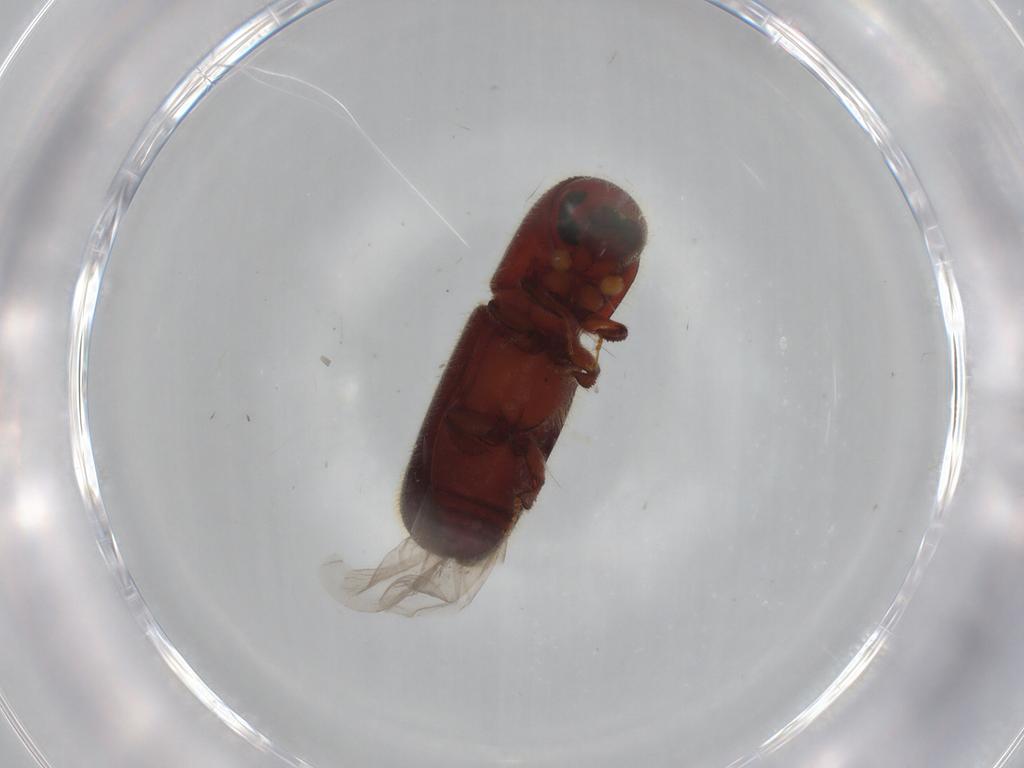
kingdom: Animalia
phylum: Arthropoda
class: Insecta
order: Coleoptera
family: Curculionidae
